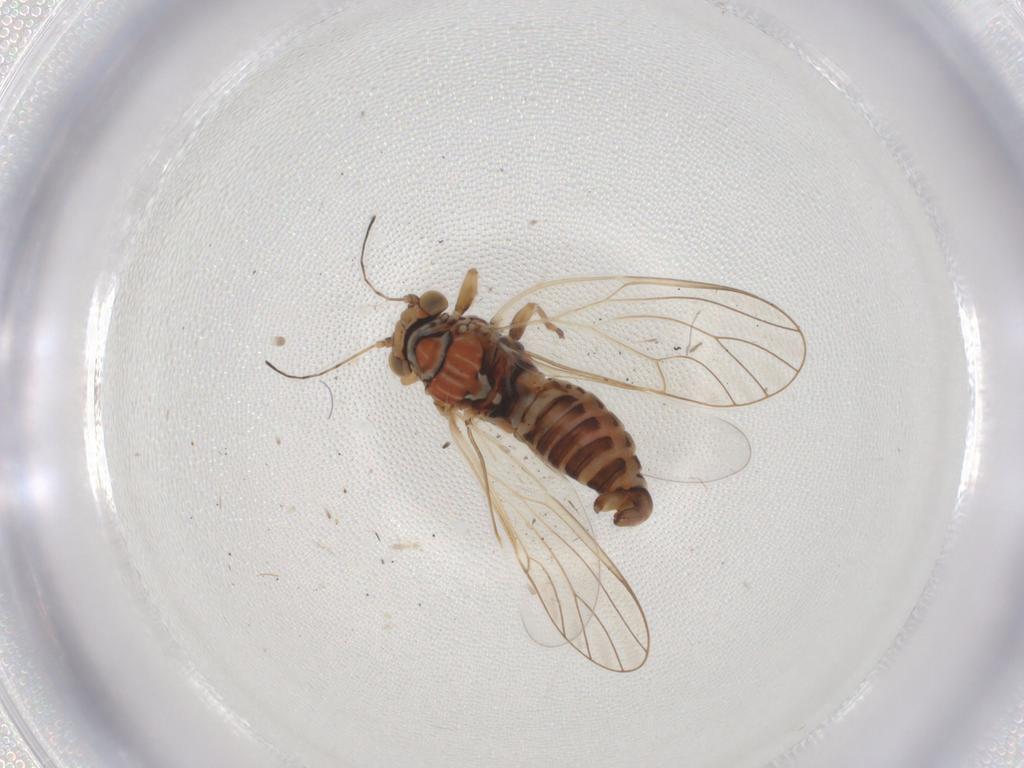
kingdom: Animalia
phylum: Arthropoda
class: Insecta
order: Hemiptera
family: Psyllidae
